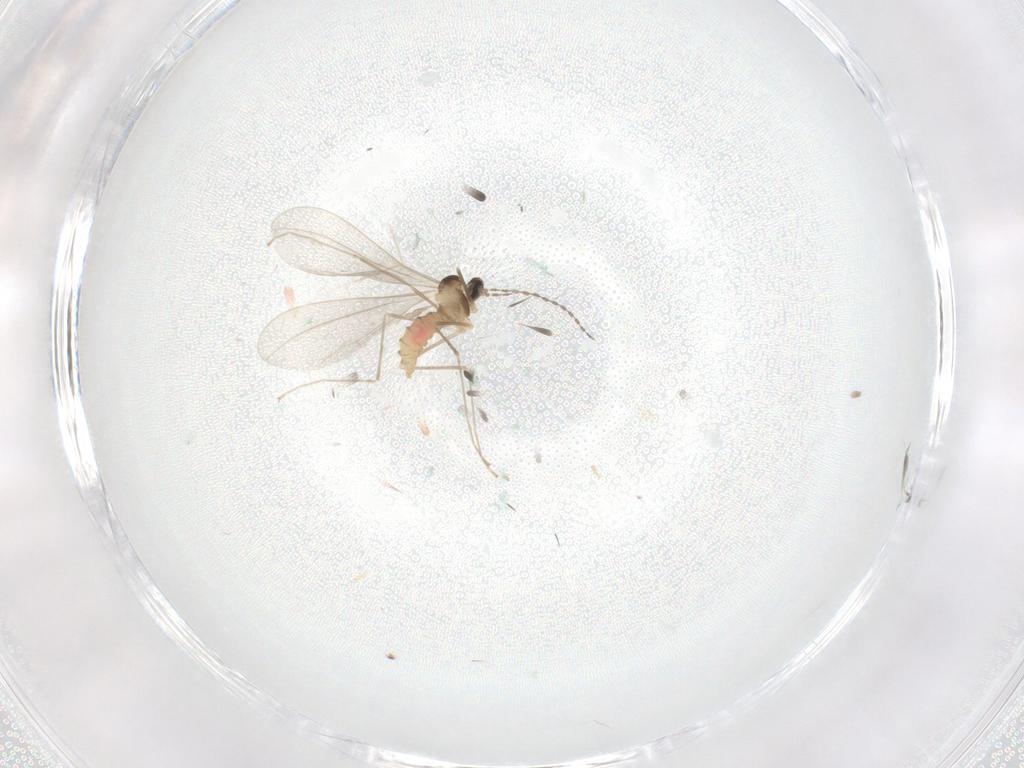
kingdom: Animalia
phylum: Arthropoda
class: Insecta
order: Diptera
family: Cecidomyiidae
